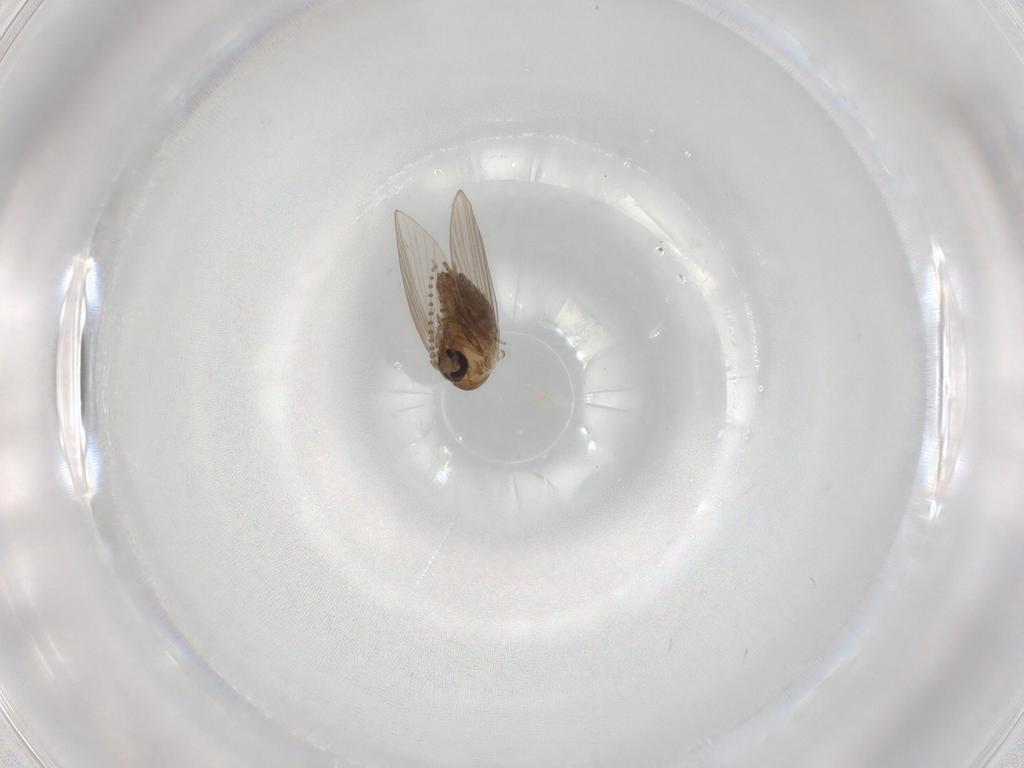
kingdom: Animalia
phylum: Arthropoda
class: Insecta
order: Diptera
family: Psychodidae
